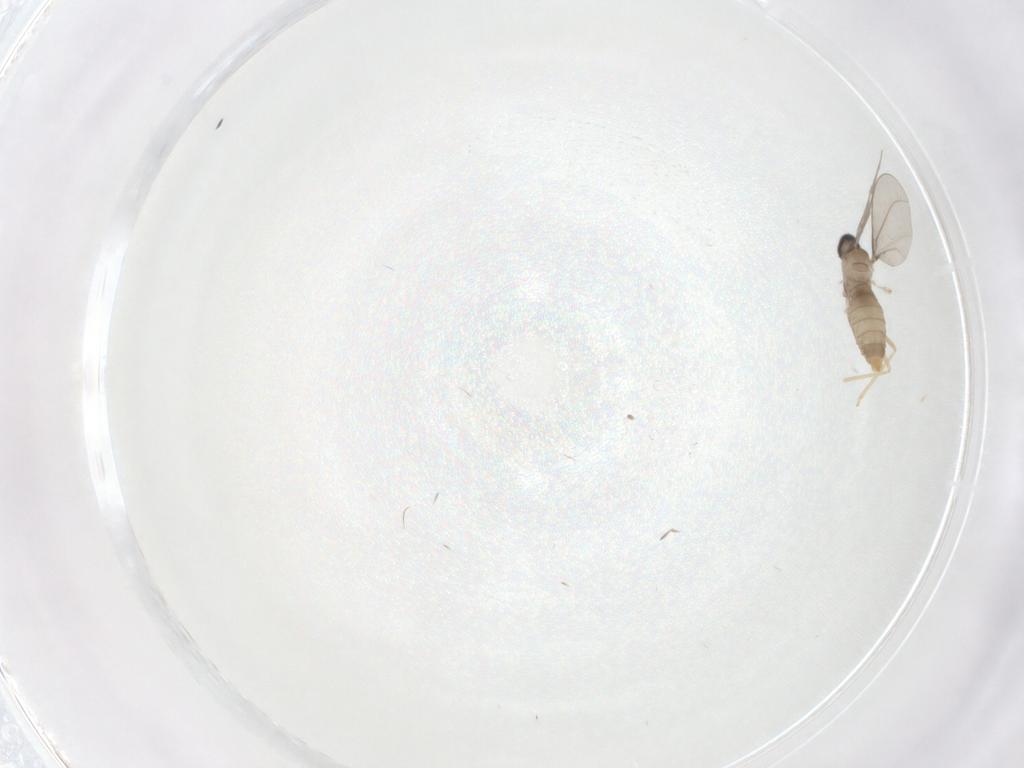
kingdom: Animalia
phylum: Arthropoda
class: Insecta
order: Diptera
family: Cecidomyiidae
